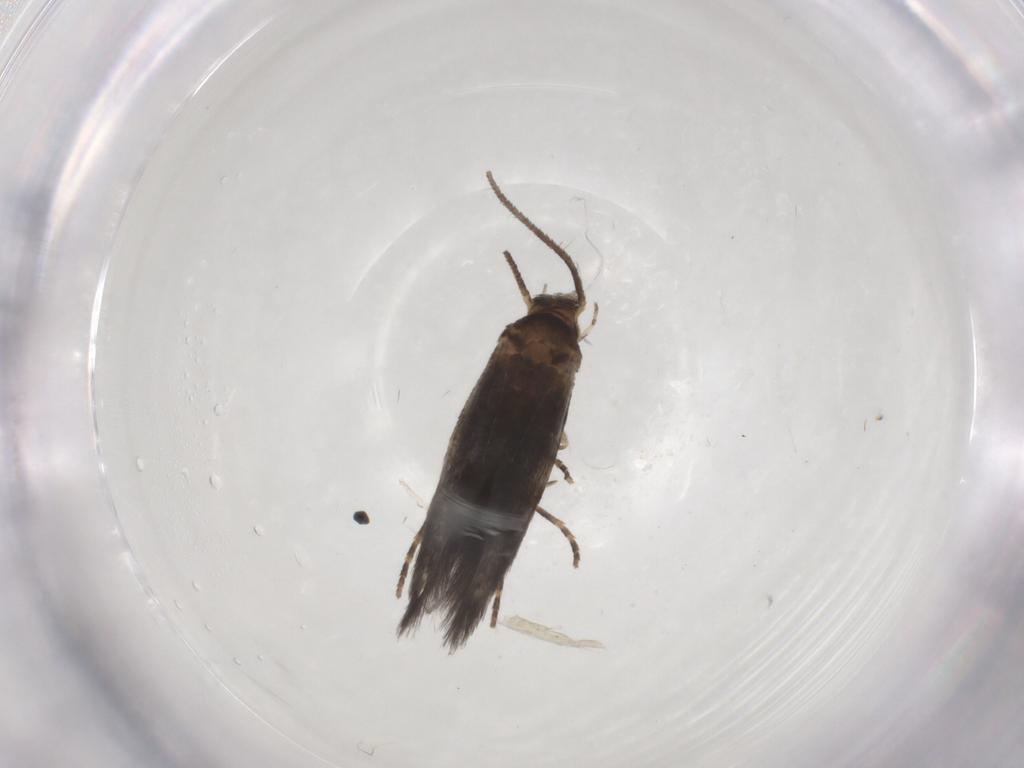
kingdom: Animalia
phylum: Arthropoda
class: Insecta
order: Lepidoptera
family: Elachistidae
